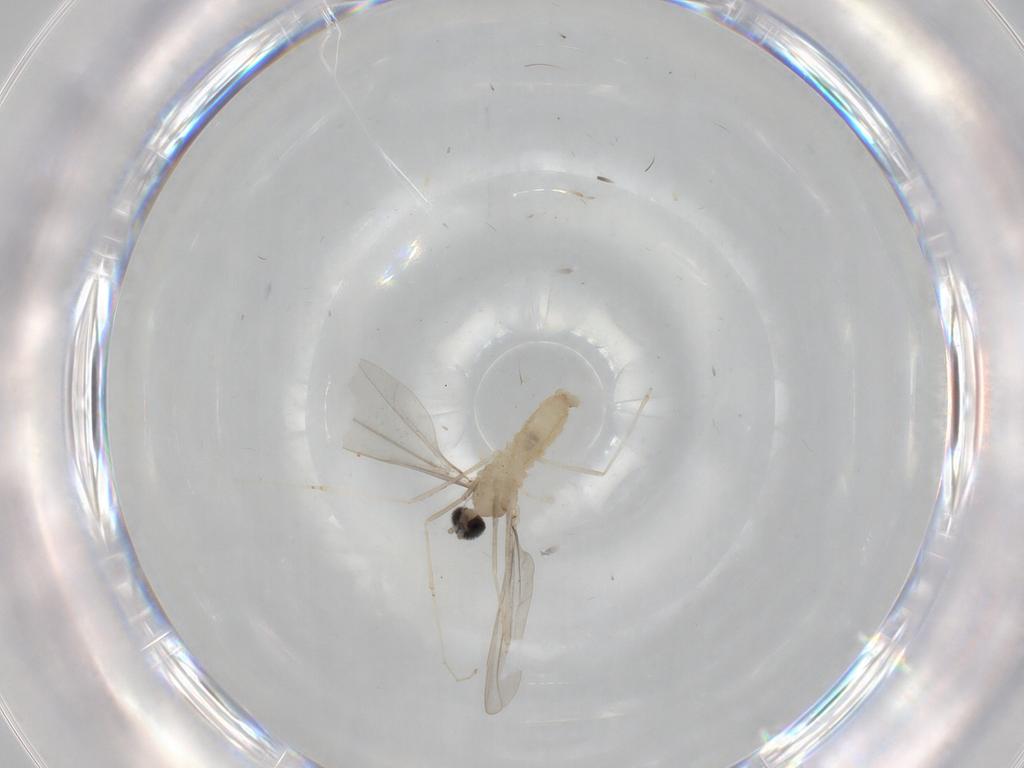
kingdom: Animalia
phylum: Arthropoda
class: Insecta
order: Diptera
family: Cecidomyiidae
